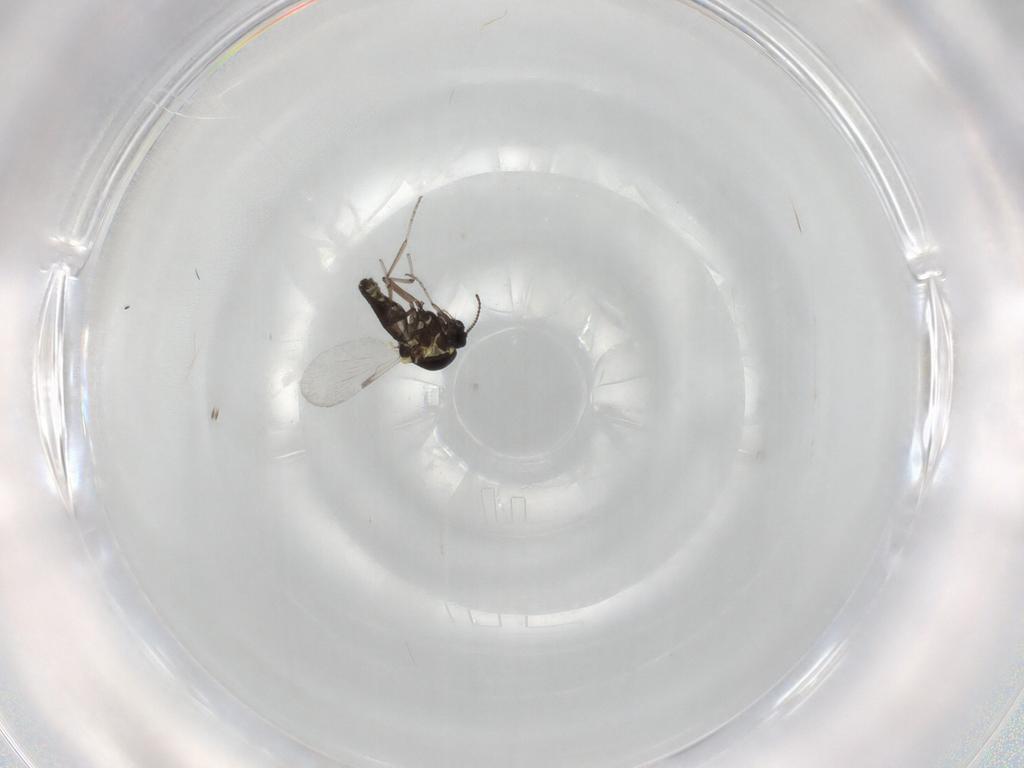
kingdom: Animalia
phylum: Arthropoda
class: Insecta
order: Diptera
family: Ceratopogonidae
